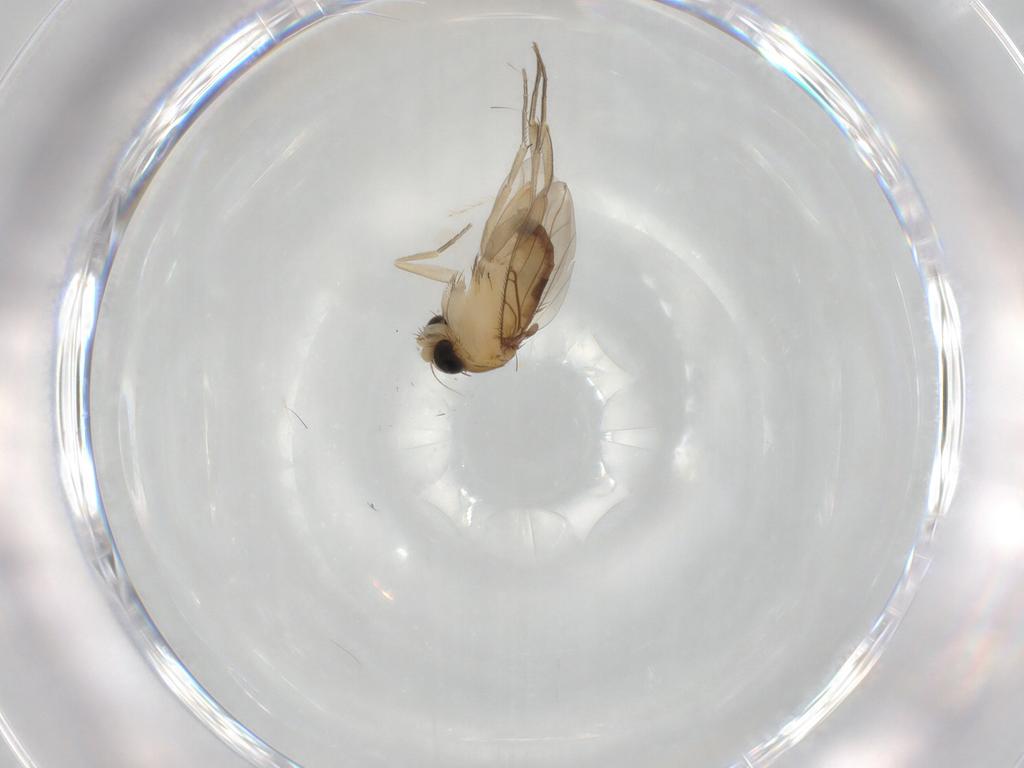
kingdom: Animalia
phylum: Arthropoda
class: Insecta
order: Diptera
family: Phoridae
